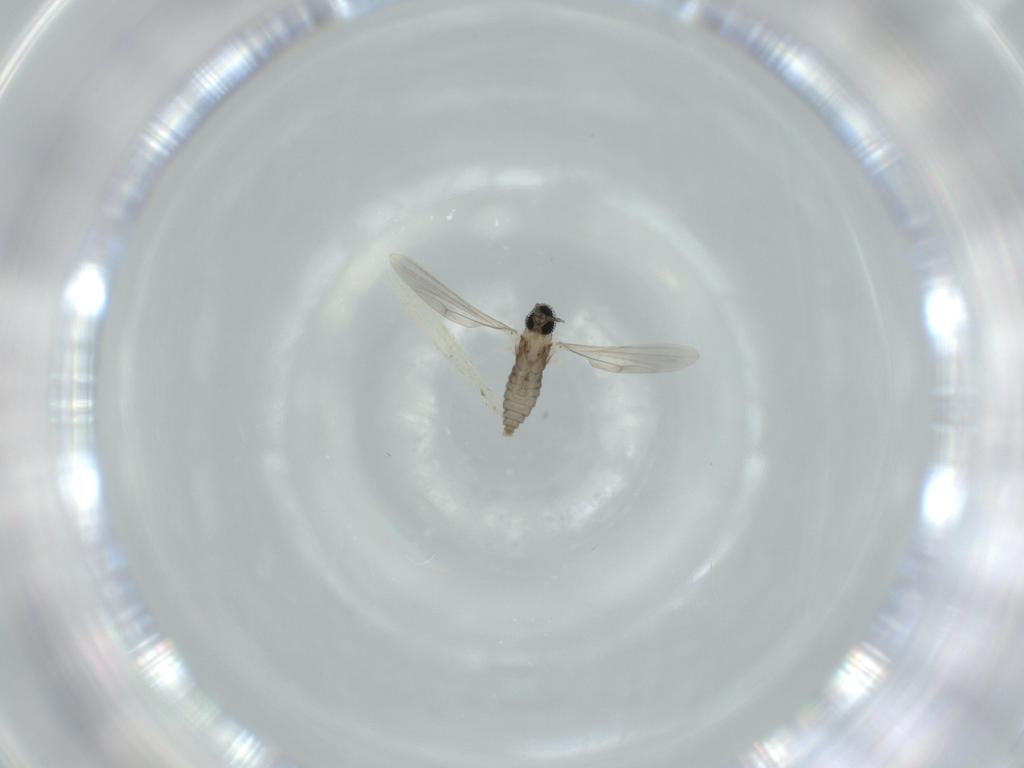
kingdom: Animalia
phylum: Arthropoda
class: Insecta
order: Diptera
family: Cecidomyiidae
